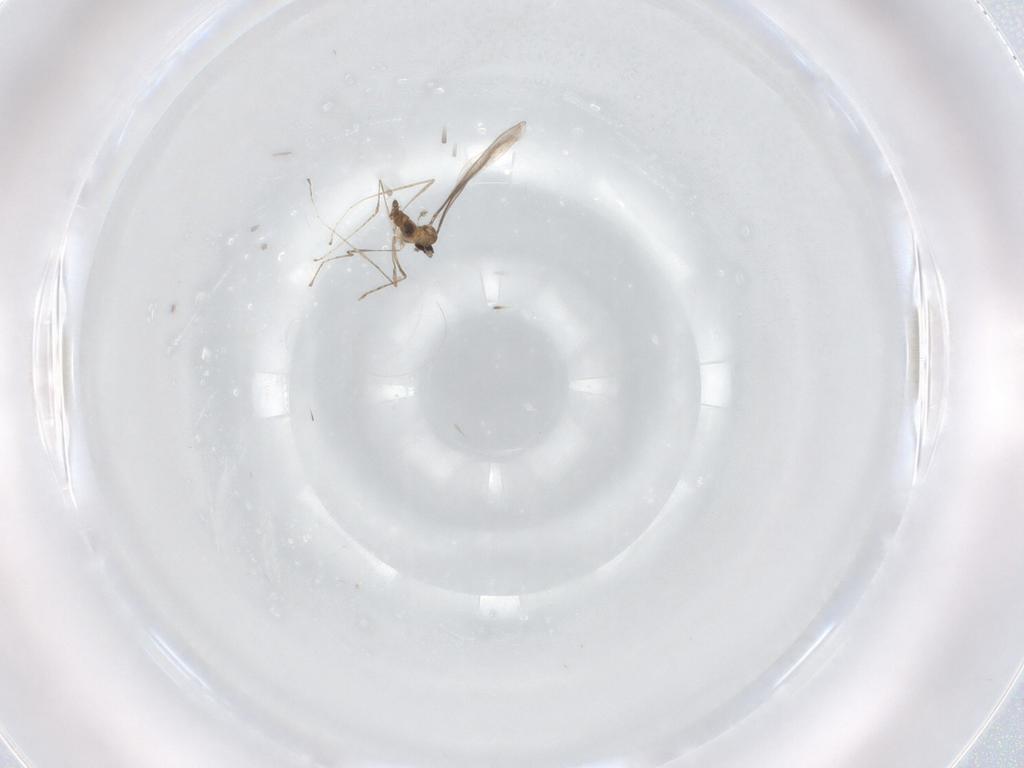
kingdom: Animalia
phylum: Arthropoda
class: Insecta
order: Diptera
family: Cecidomyiidae
